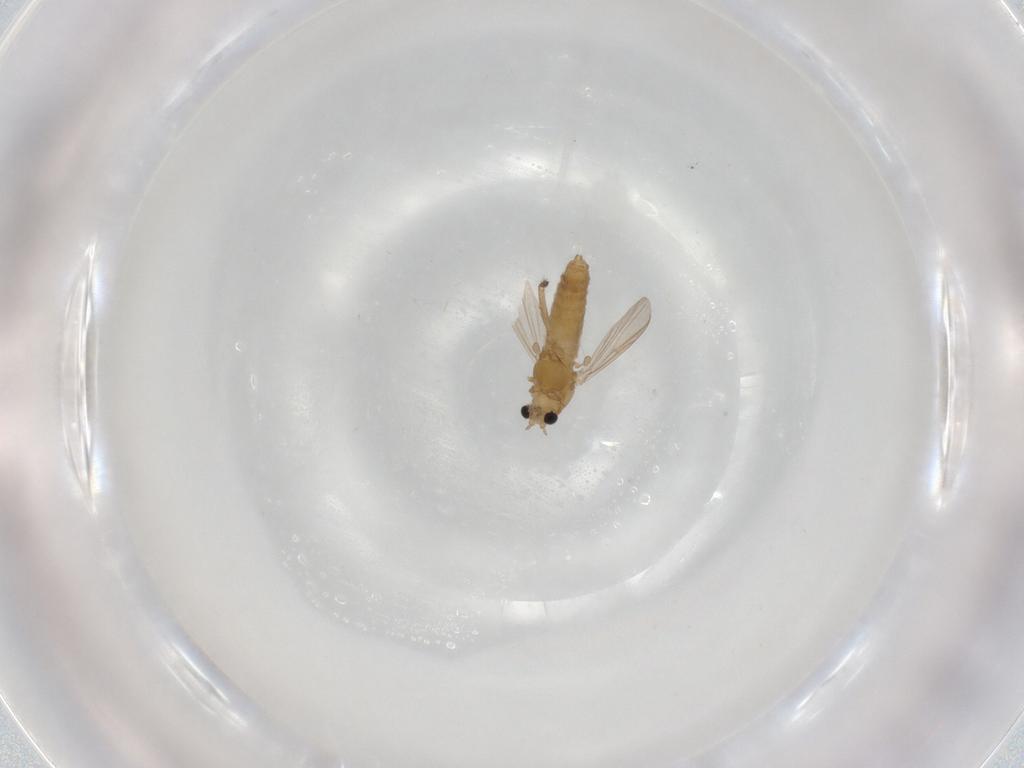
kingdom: Animalia
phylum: Arthropoda
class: Insecta
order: Diptera
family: Chironomidae
